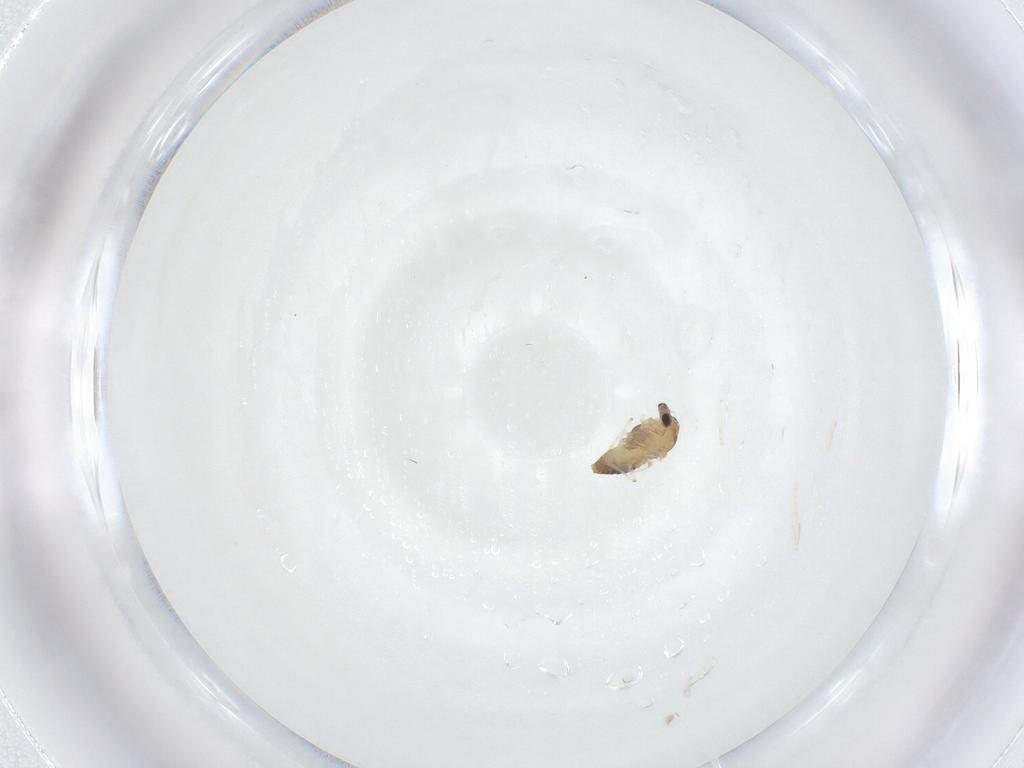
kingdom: Animalia
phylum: Arthropoda
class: Insecta
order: Diptera
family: Chironomidae
